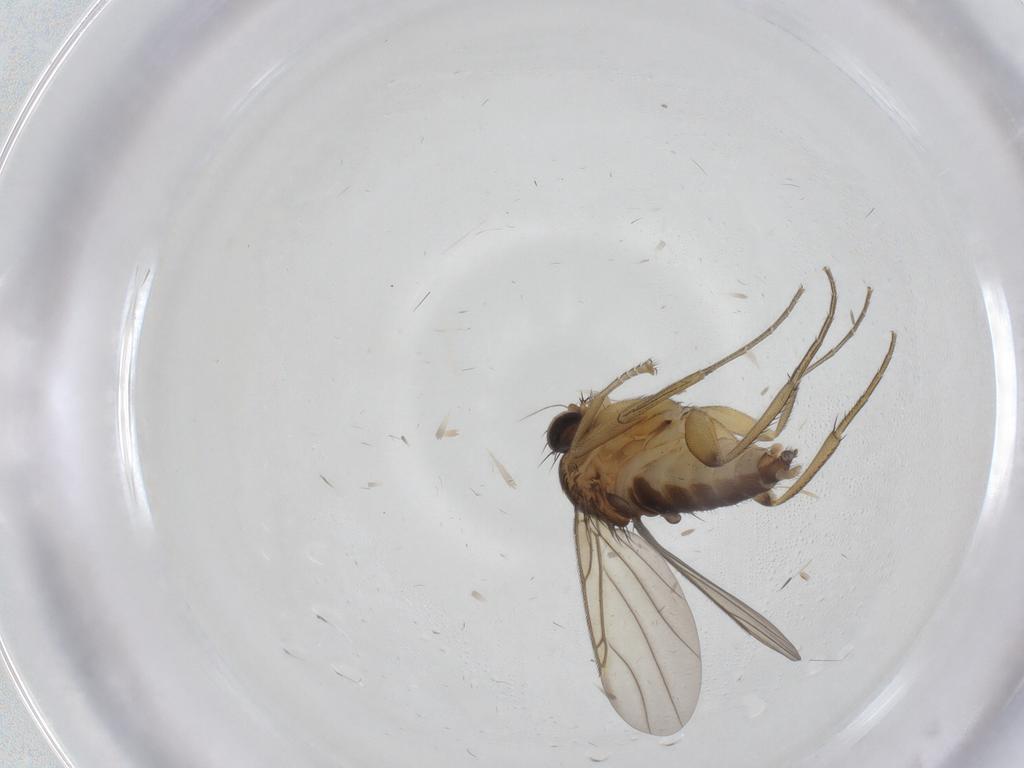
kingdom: Animalia
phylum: Arthropoda
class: Insecta
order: Diptera
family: Phoridae
